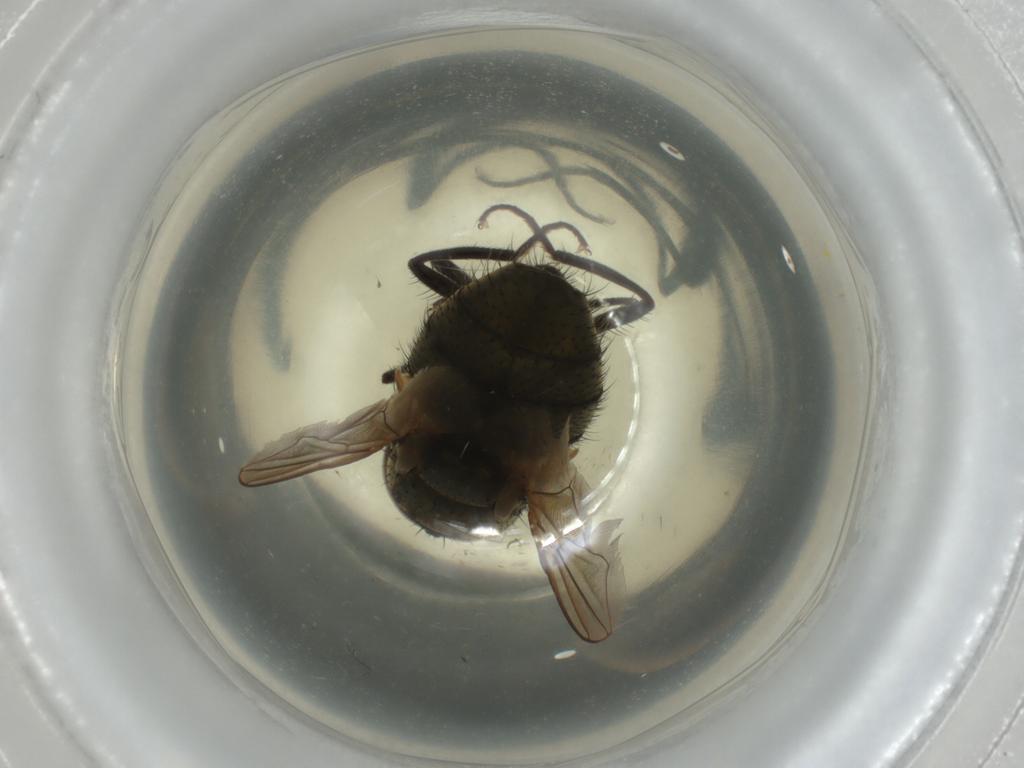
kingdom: Animalia
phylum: Arthropoda
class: Insecta
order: Diptera
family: Muscidae
